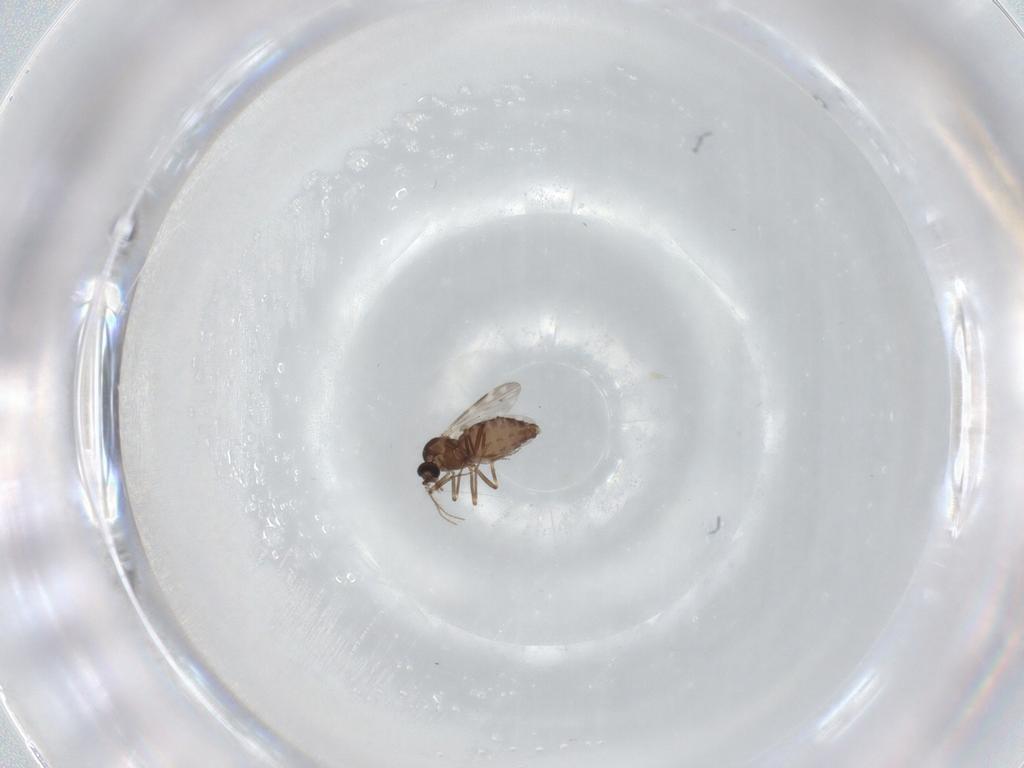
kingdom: Animalia
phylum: Arthropoda
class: Insecta
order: Diptera
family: Ceratopogonidae
